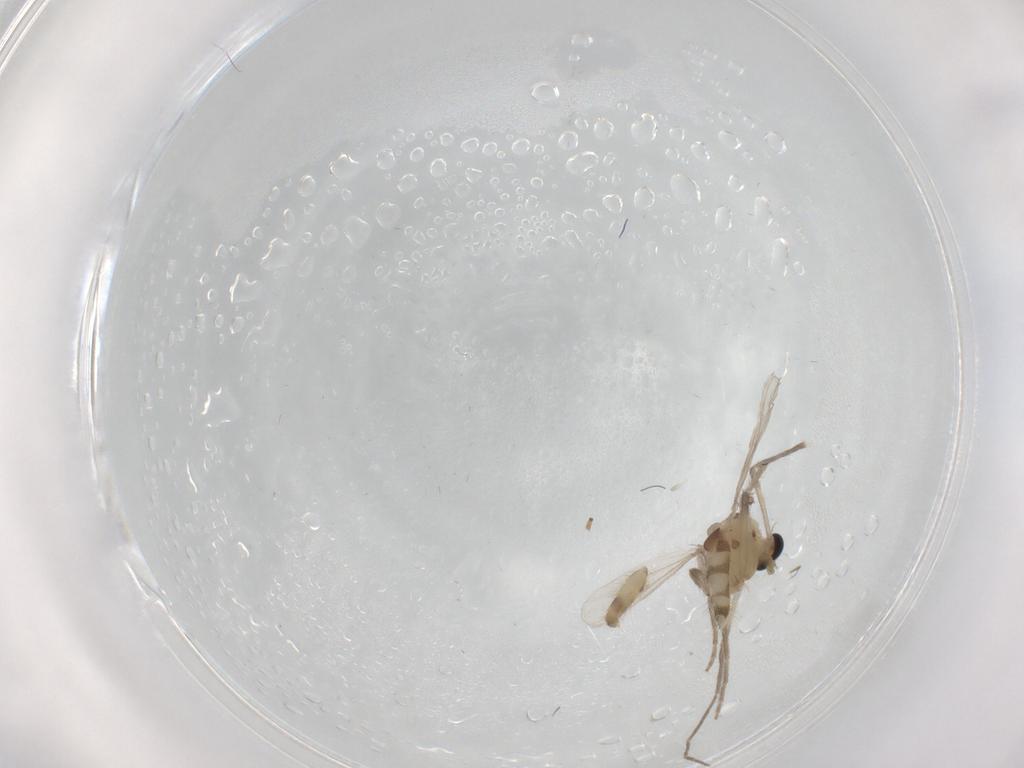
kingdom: Animalia
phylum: Arthropoda
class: Insecta
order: Diptera
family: Chironomidae
